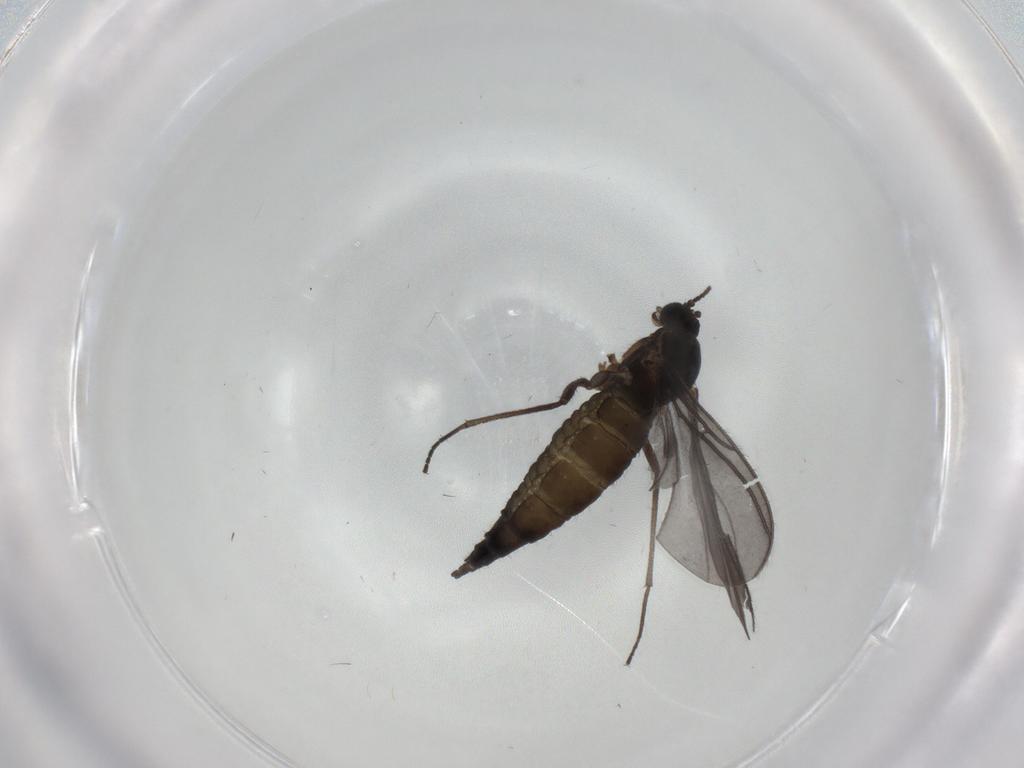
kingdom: Animalia
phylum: Arthropoda
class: Insecta
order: Diptera
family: Sciaridae
